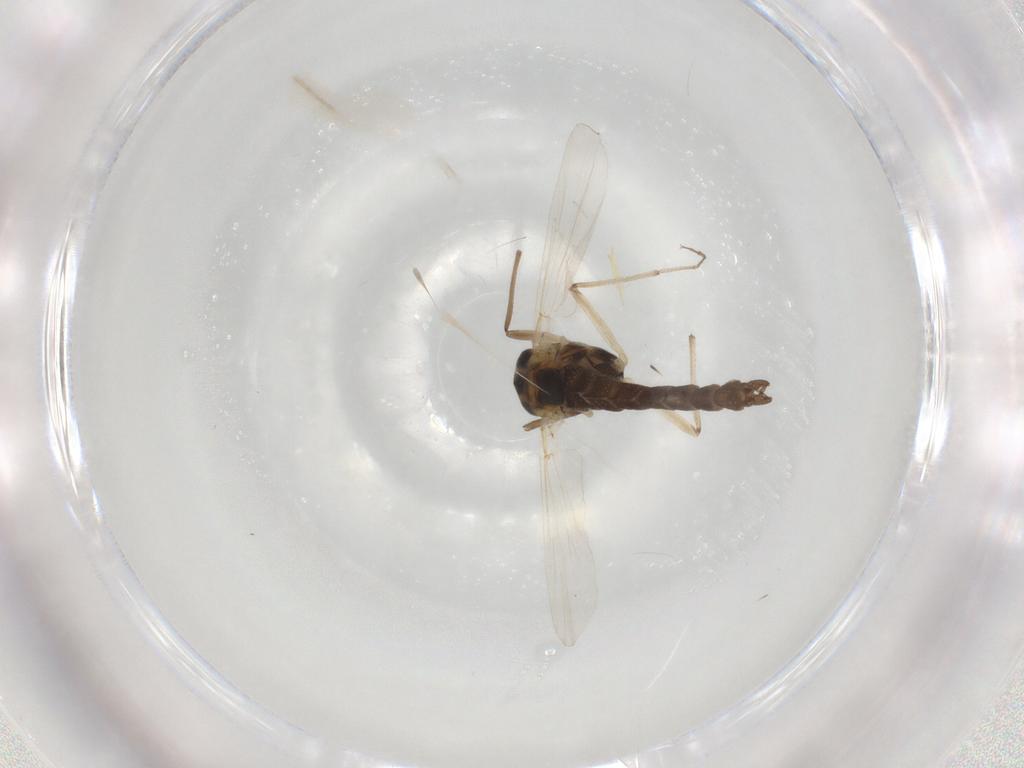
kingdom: Animalia
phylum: Arthropoda
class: Insecta
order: Diptera
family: Chironomidae
